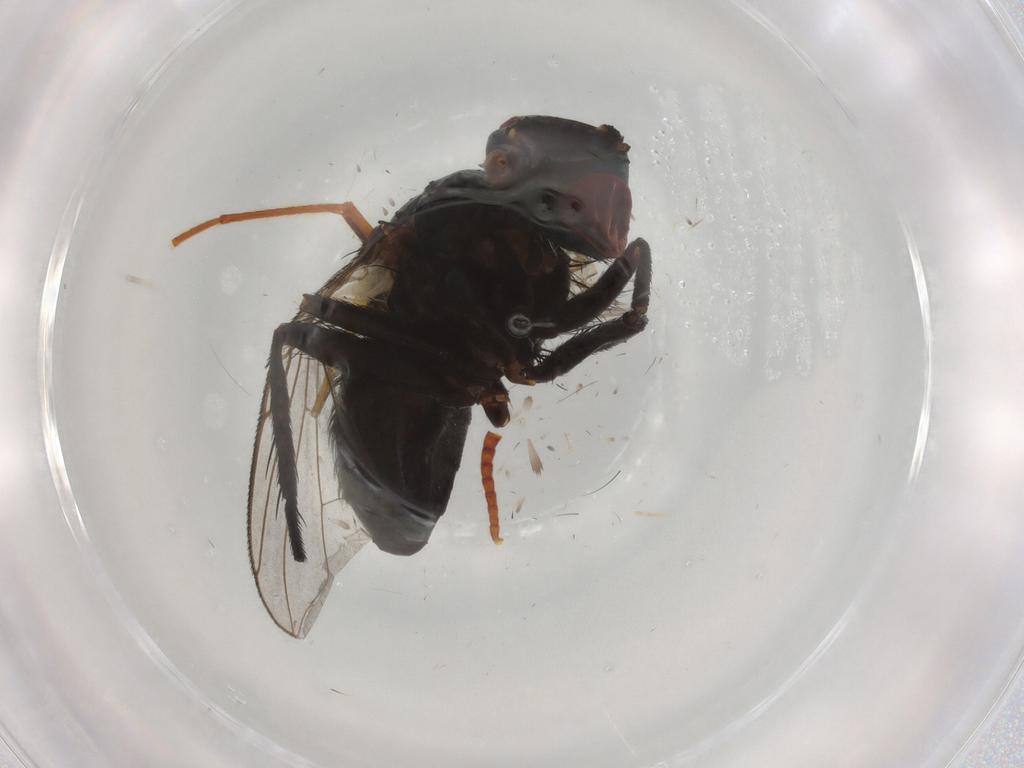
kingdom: Animalia
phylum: Arthropoda
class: Insecta
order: Diptera
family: Tachinidae
